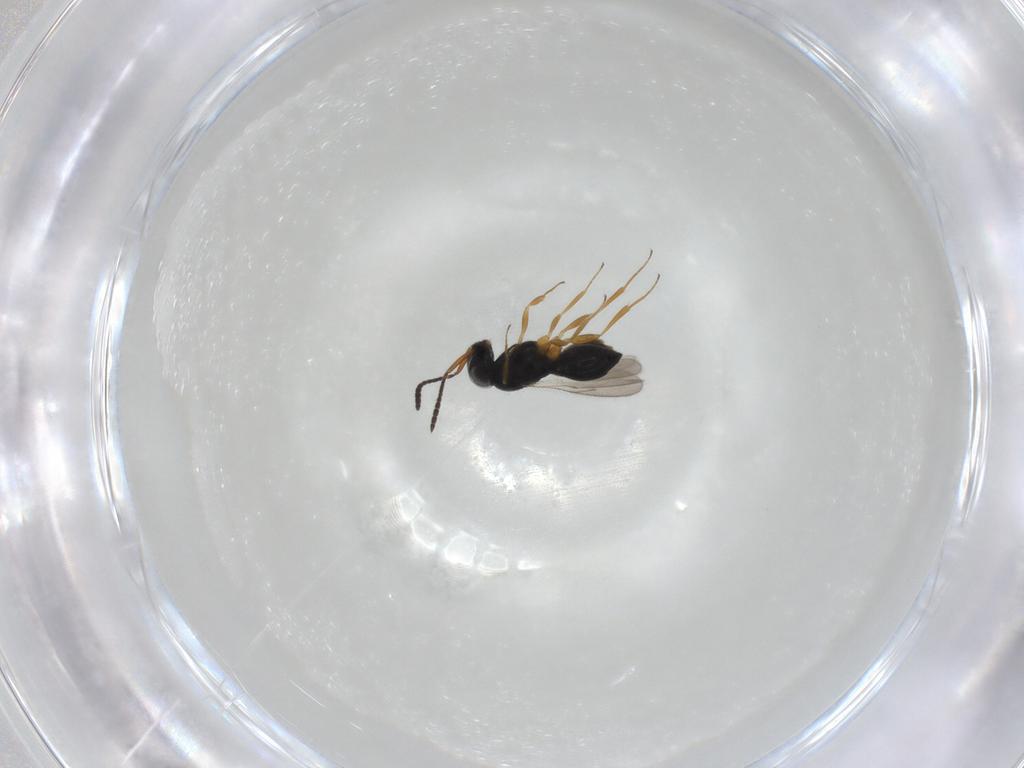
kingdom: Animalia
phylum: Arthropoda
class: Insecta
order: Hymenoptera
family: Scelionidae
